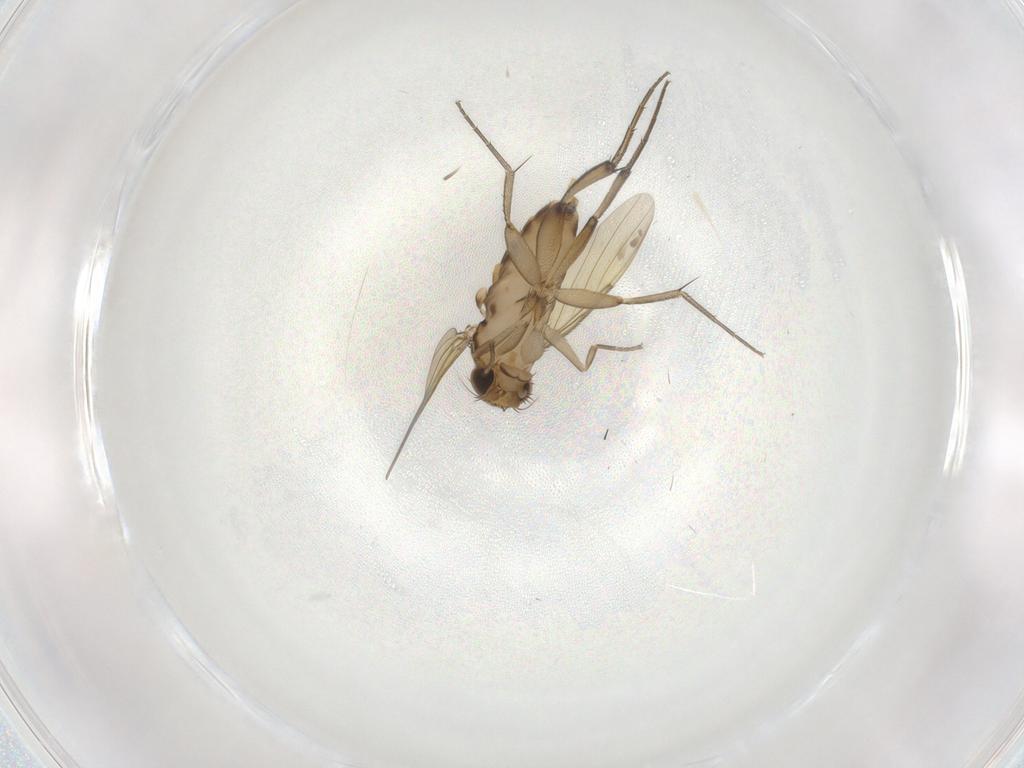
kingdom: Animalia
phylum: Arthropoda
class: Insecta
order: Diptera
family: Phoridae
